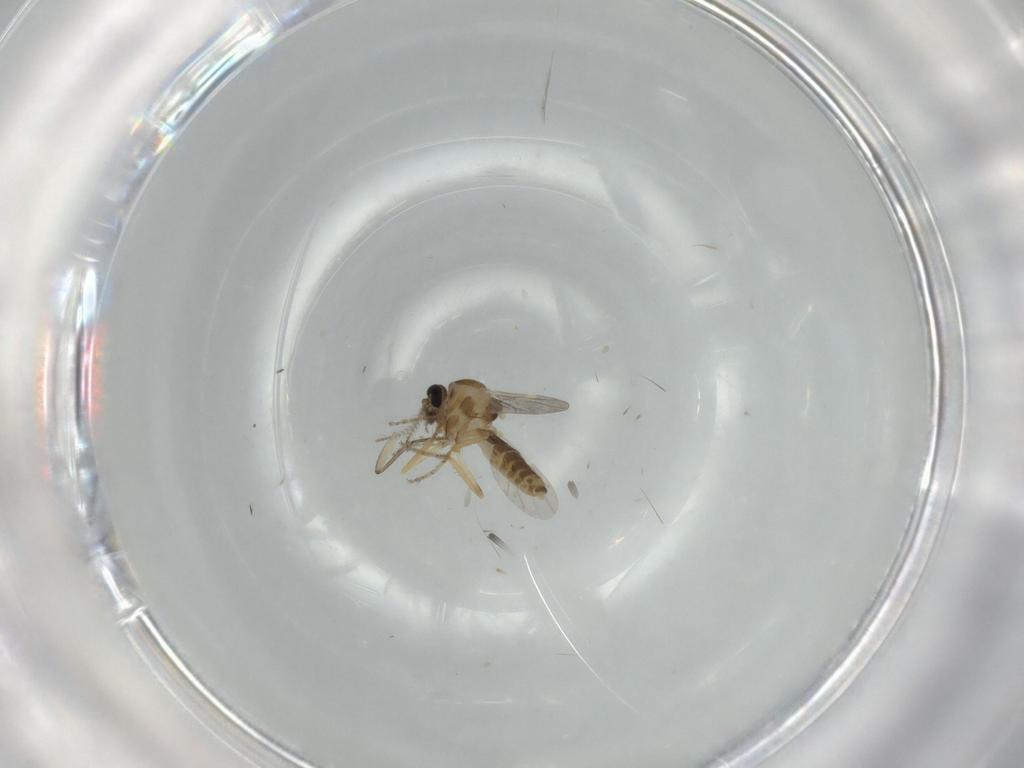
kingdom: Animalia
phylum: Arthropoda
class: Insecta
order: Diptera
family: Ceratopogonidae
